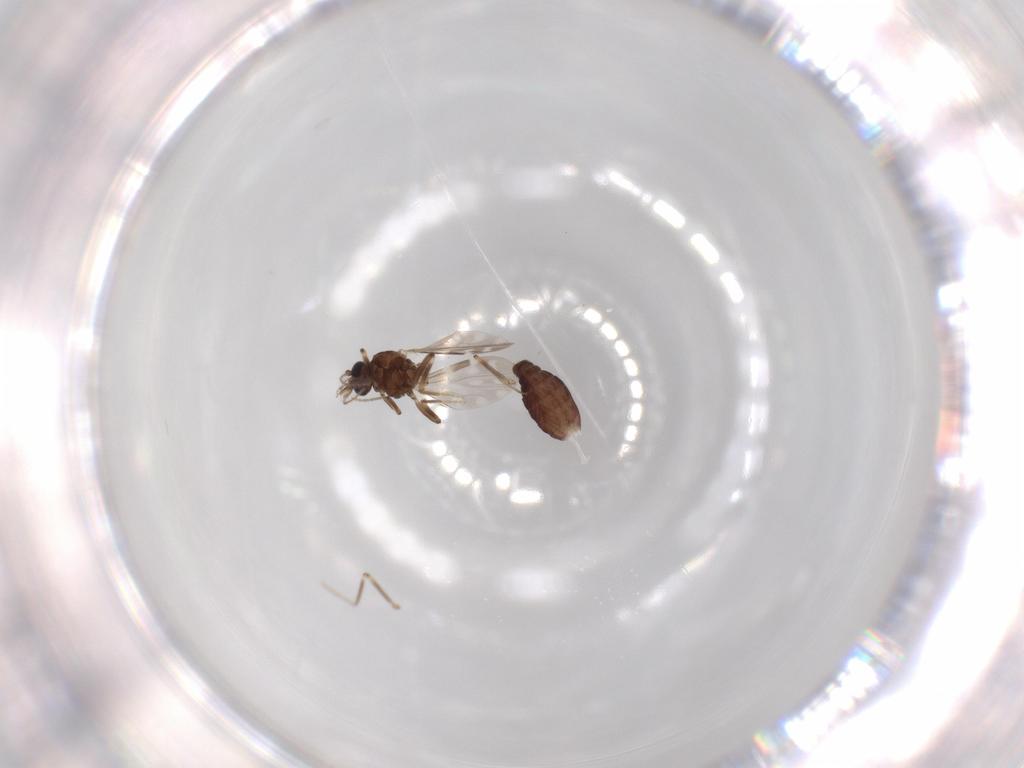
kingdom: Animalia
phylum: Arthropoda
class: Insecta
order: Diptera
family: Ceratopogonidae
